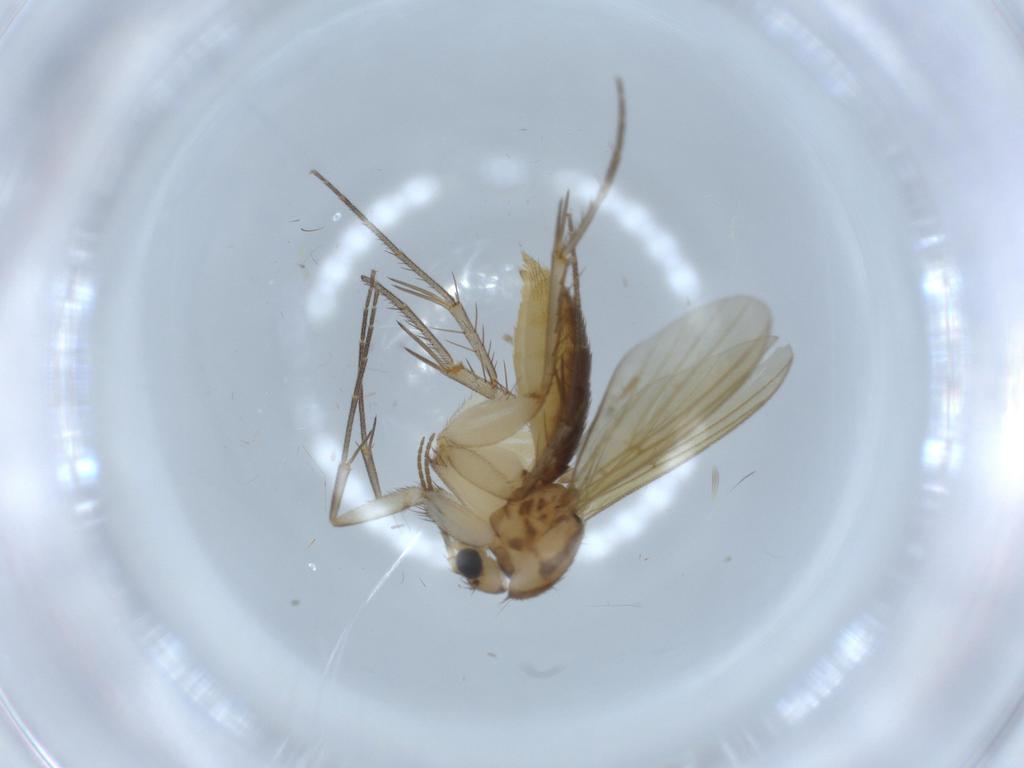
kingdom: Animalia
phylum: Arthropoda
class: Insecta
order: Diptera
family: Mycetophilidae
